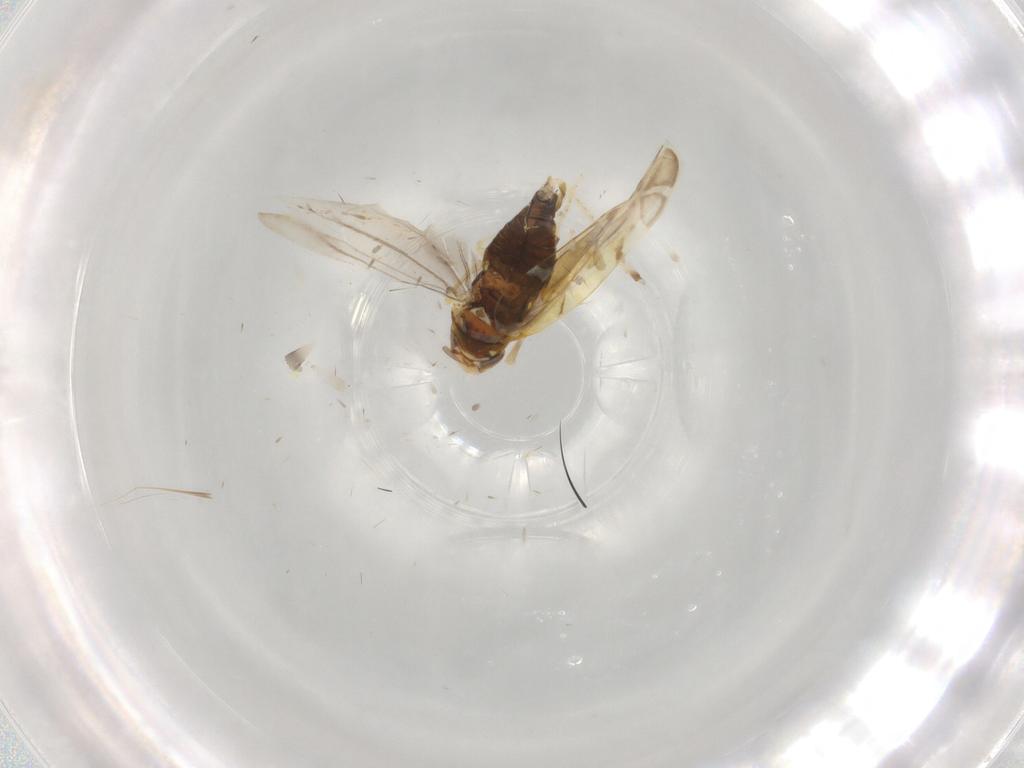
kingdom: Animalia
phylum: Arthropoda
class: Insecta
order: Hemiptera
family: Cicadellidae
